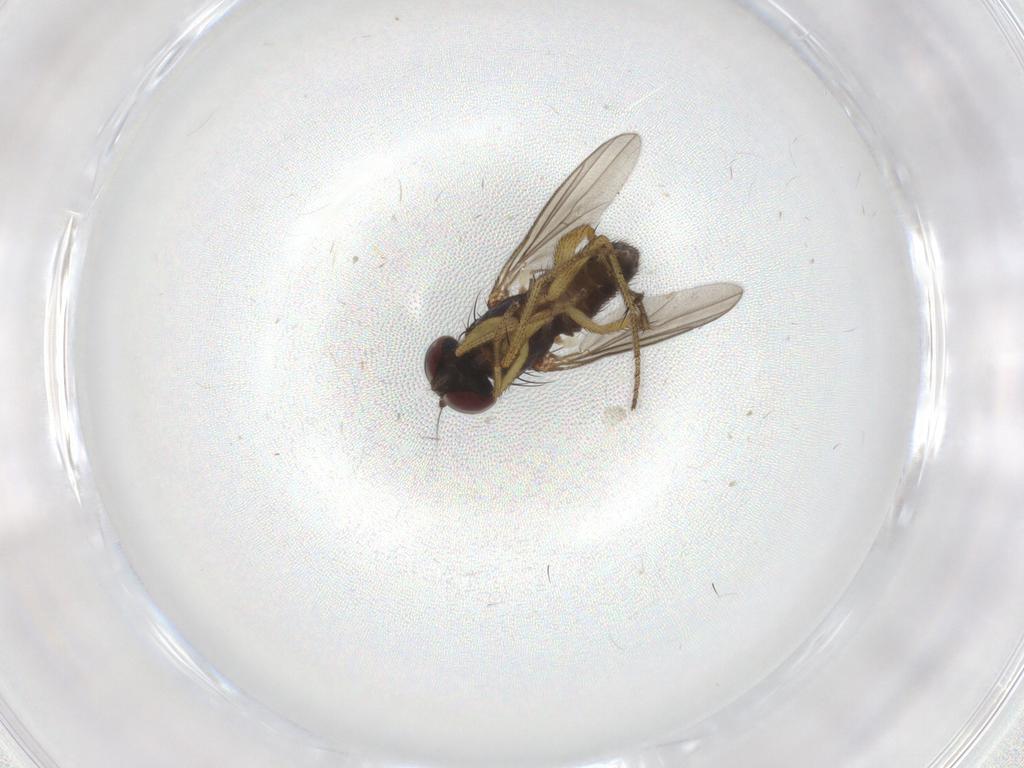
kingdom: Animalia
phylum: Arthropoda
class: Insecta
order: Diptera
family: Dolichopodidae
